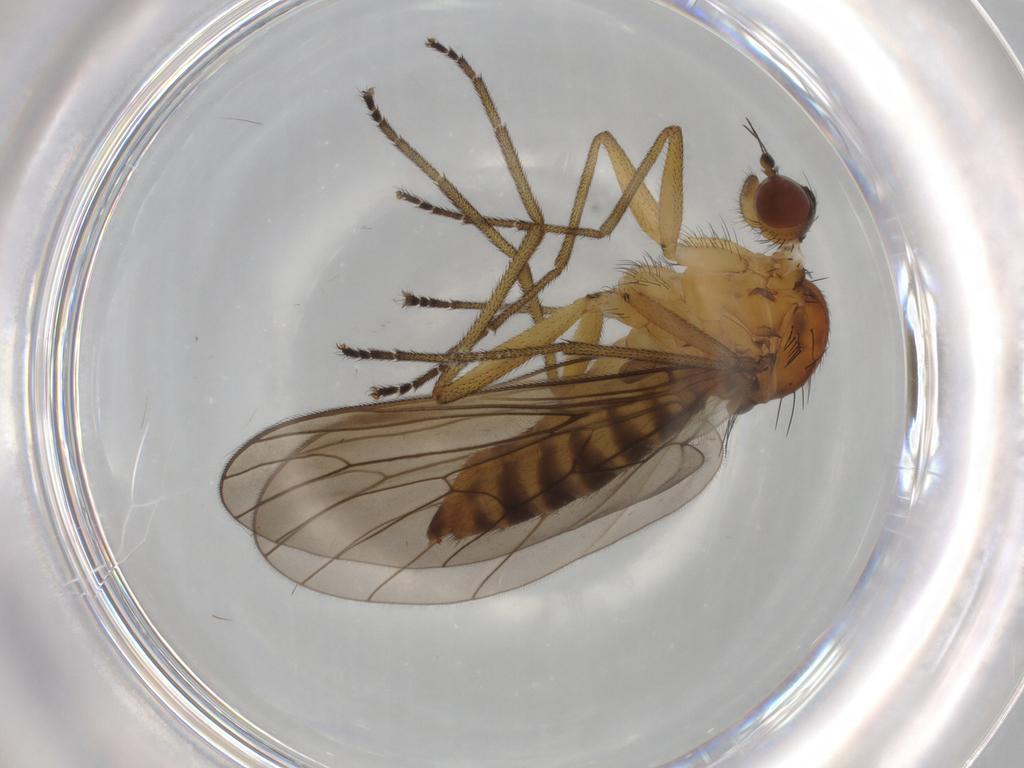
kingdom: Animalia
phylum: Arthropoda
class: Insecta
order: Diptera
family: Brachystomatidae
